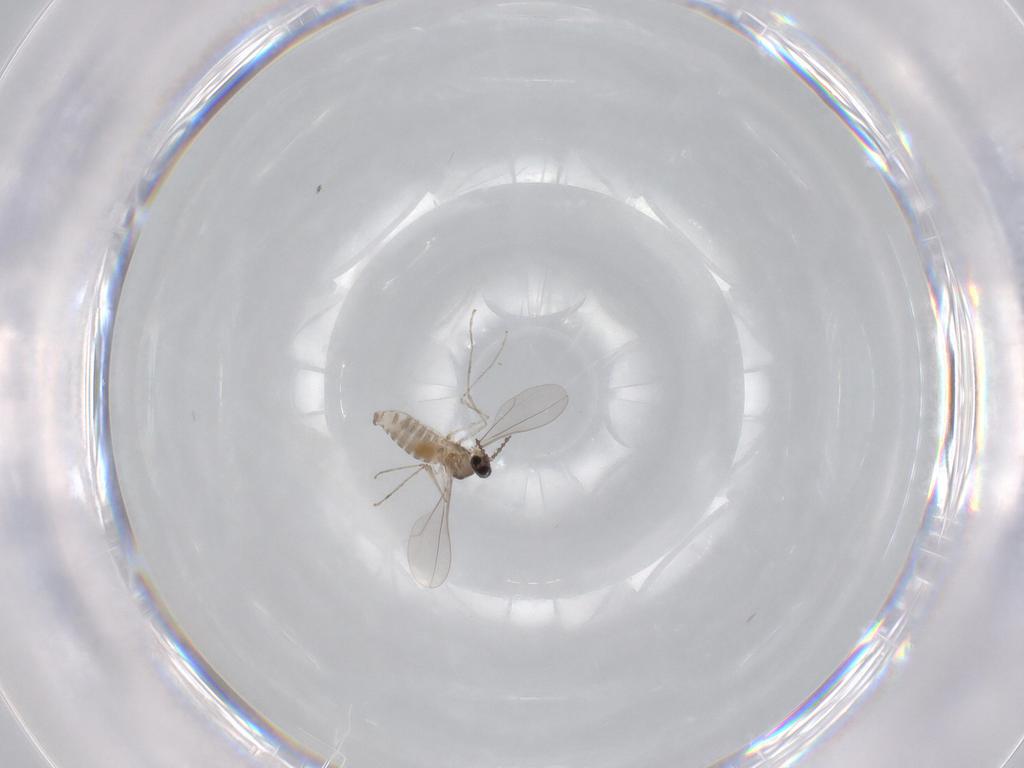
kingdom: Animalia
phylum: Arthropoda
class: Insecta
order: Diptera
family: Cecidomyiidae
